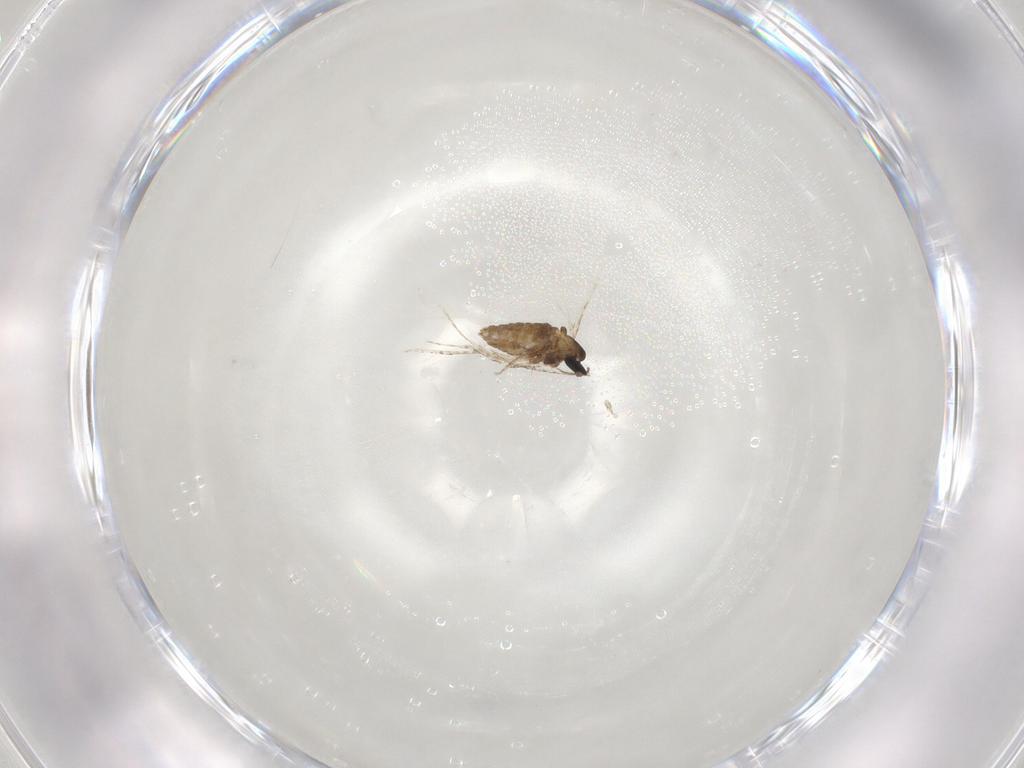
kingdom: Animalia
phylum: Arthropoda
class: Insecta
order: Diptera
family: Cecidomyiidae
